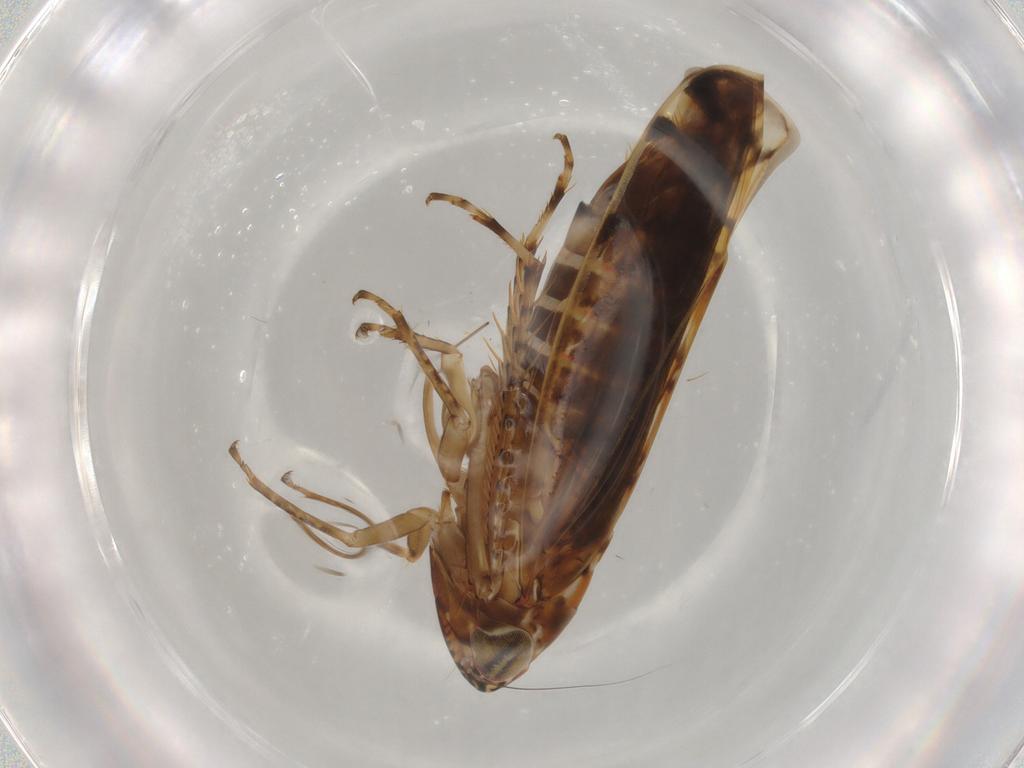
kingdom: Animalia
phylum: Arthropoda
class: Insecta
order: Hemiptera
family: Cicadellidae
